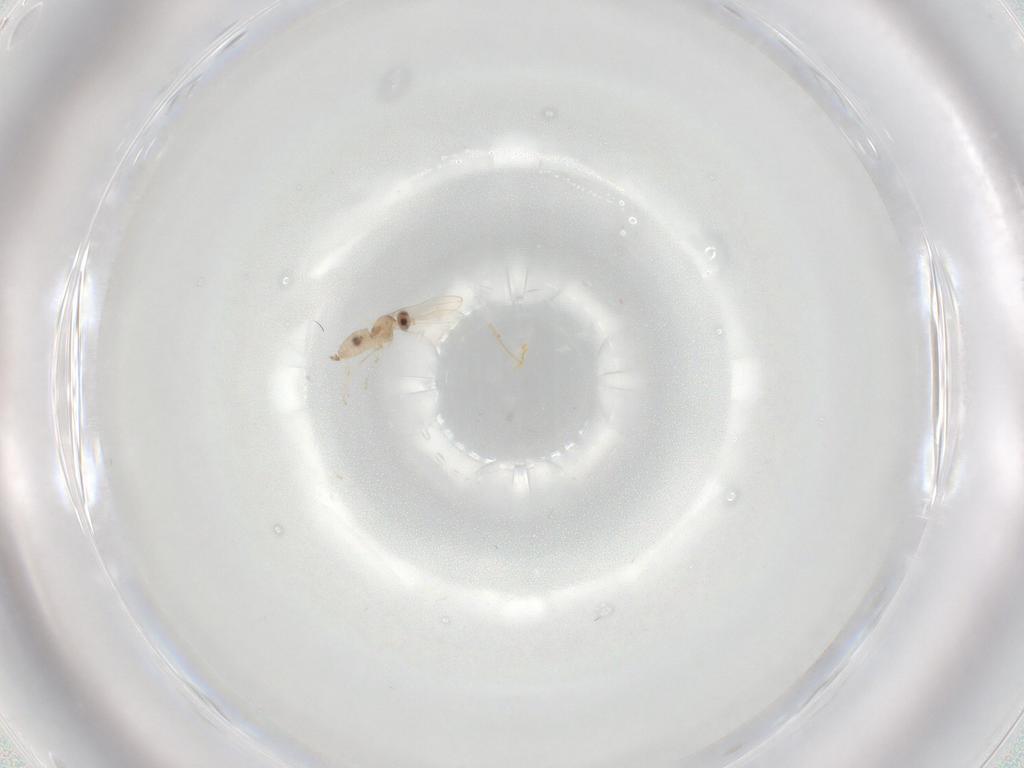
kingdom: Animalia
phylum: Arthropoda
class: Insecta
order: Diptera
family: Cecidomyiidae
